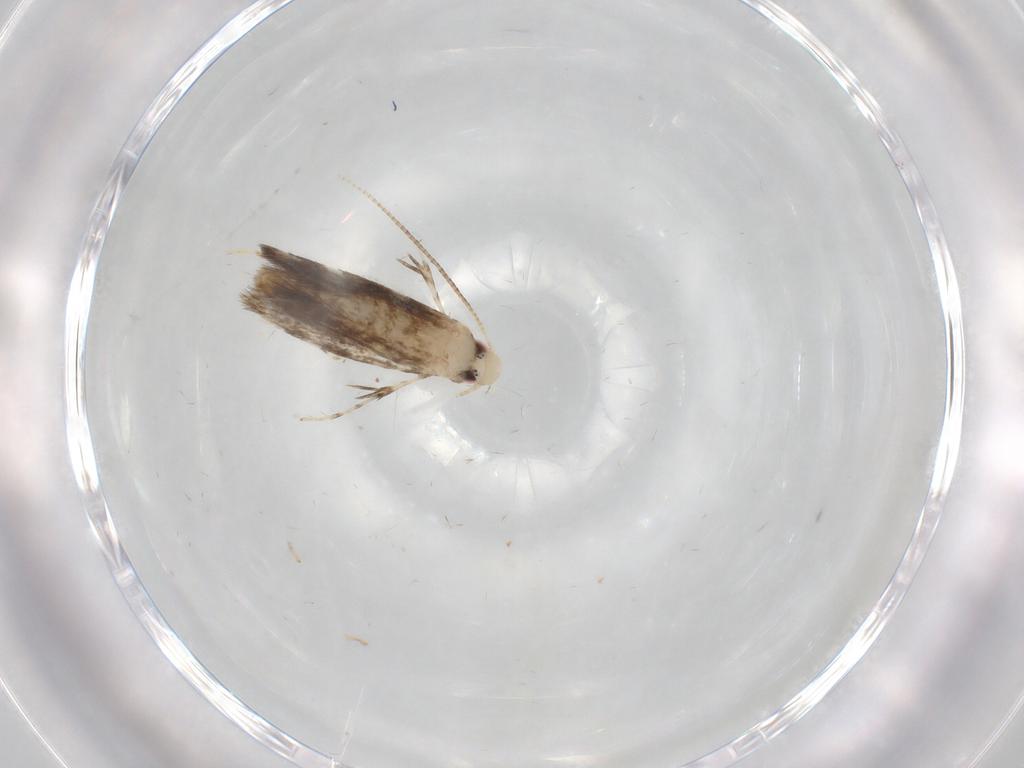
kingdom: Animalia
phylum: Arthropoda
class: Insecta
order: Lepidoptera
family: Gracillariidae
